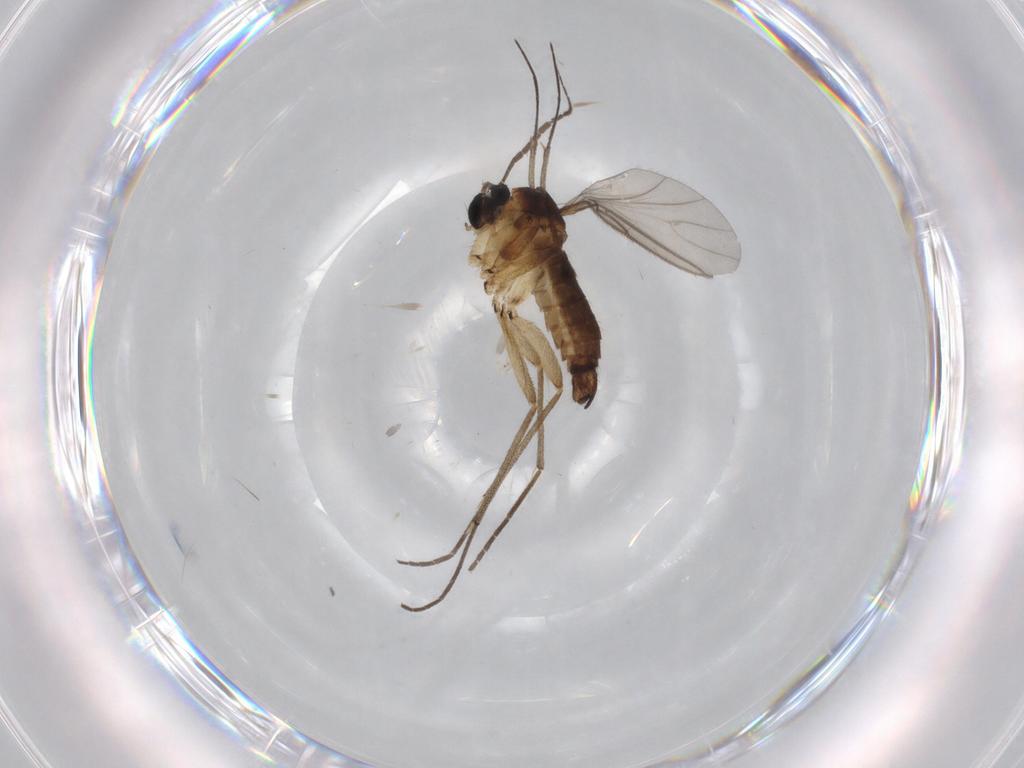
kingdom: Animalia
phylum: Arthropoda
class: Insecta
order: Diptera
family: Sciaridae
